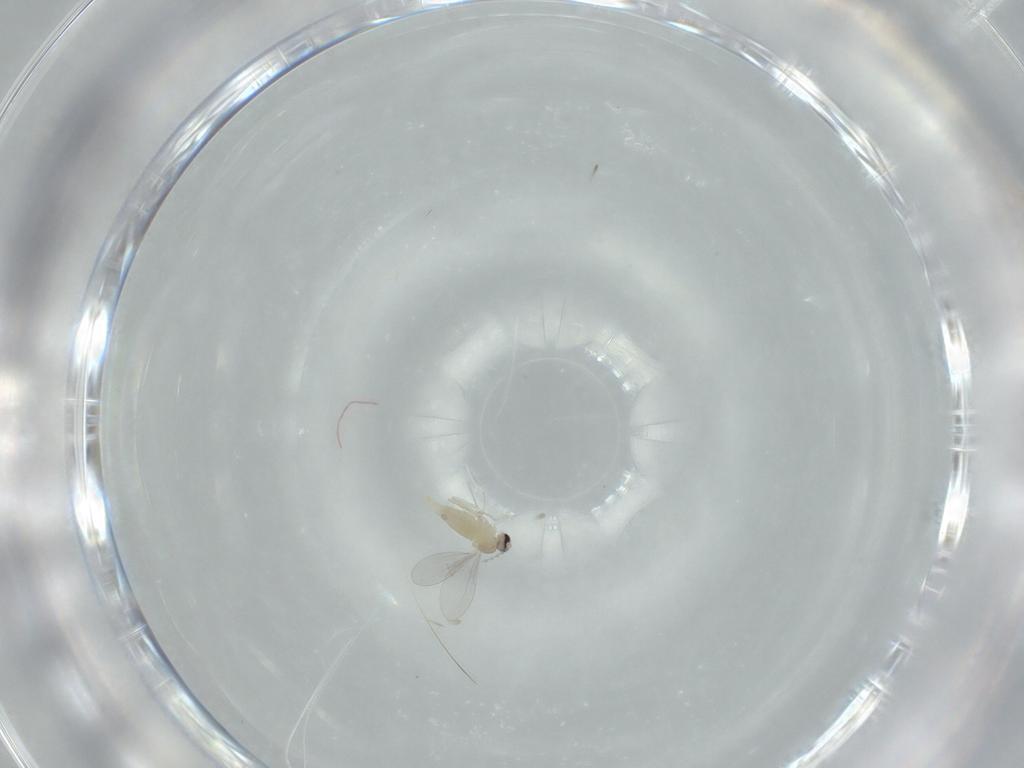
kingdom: Animalia
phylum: Arthropoda
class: Insecta
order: Diptera
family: Cecidomyiidae
